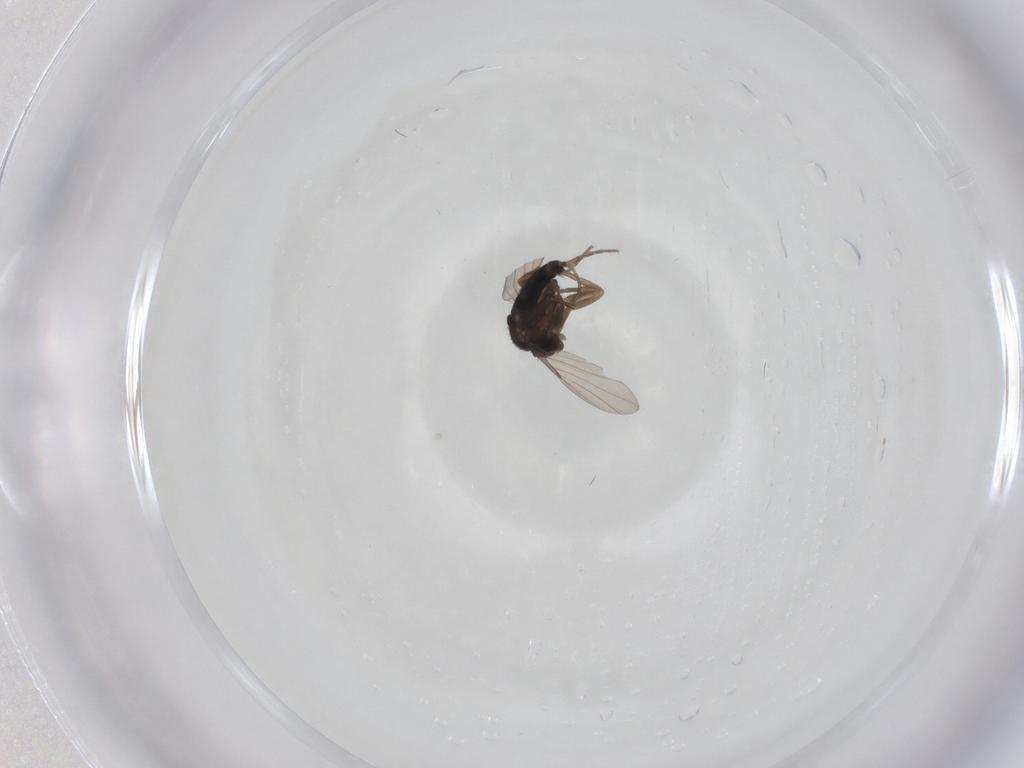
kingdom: Animalia
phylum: Arthropoda
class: Insecta
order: Diptera
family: Phoridae
